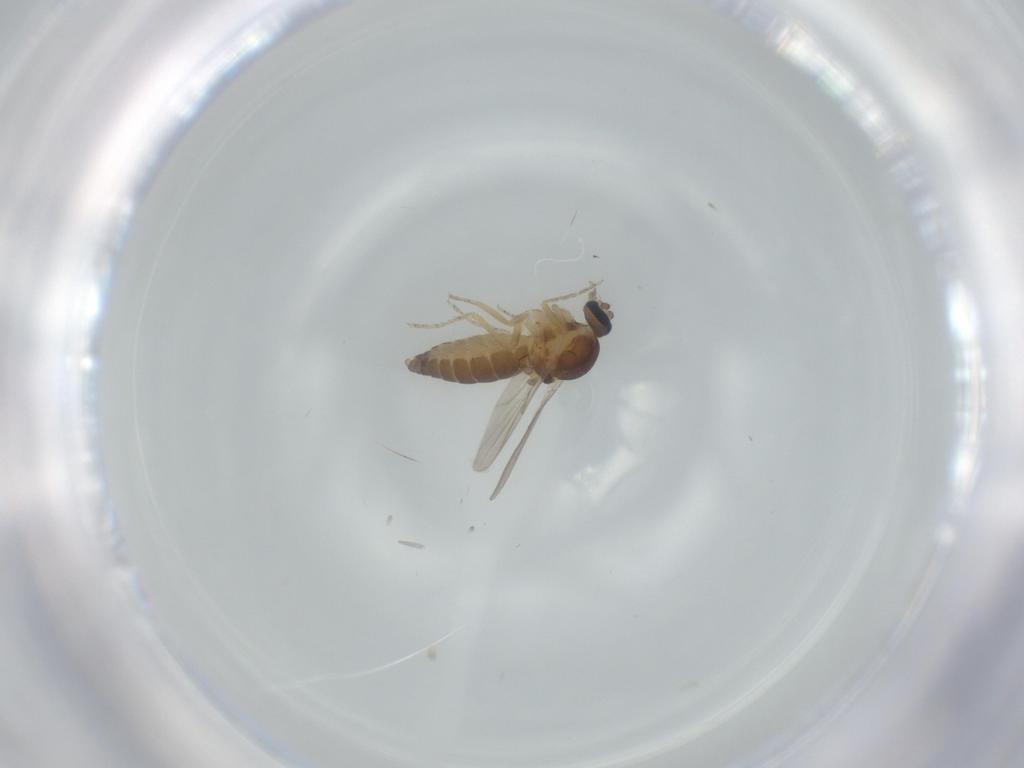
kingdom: Animalia
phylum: Arthropoda
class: Insecta
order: Diptera
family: Ceratopogonidae
